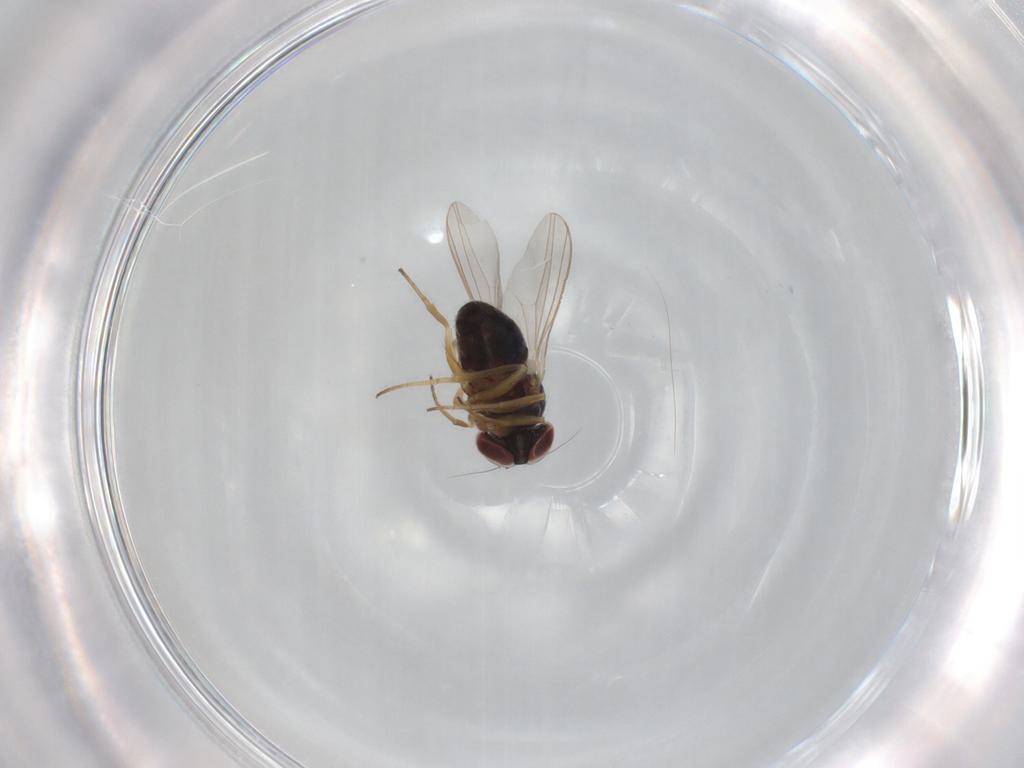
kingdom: Animalia
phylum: Arthropoda
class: Insecta
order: Diptera
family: Dolichopodidae
